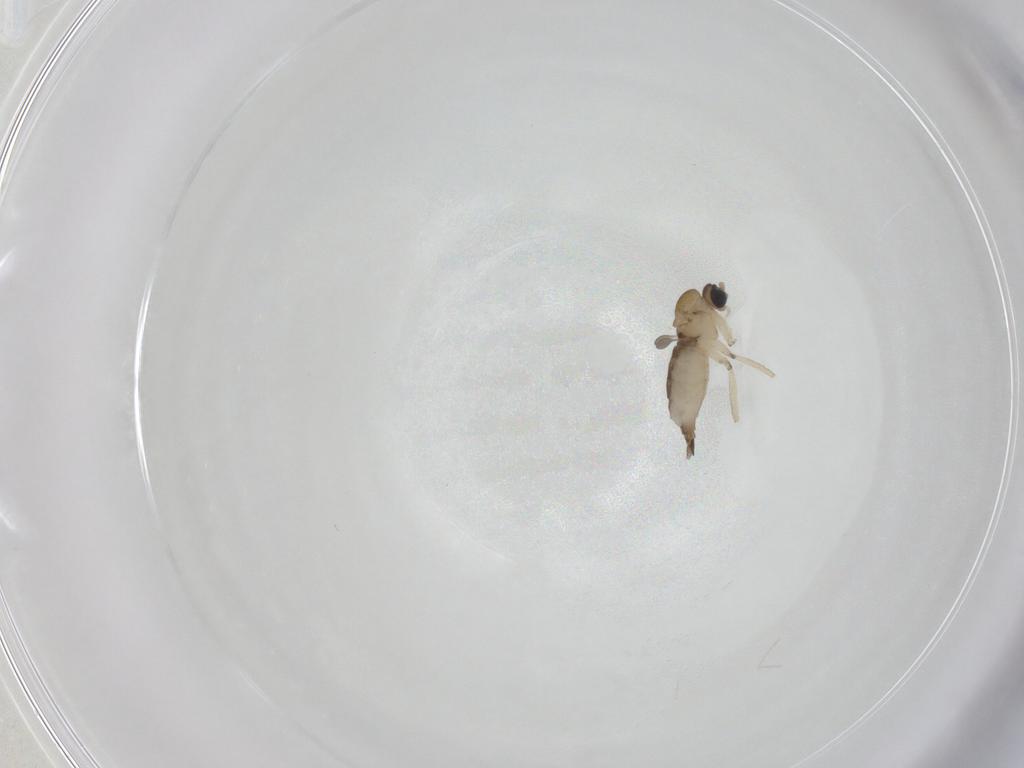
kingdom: Animalia
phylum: Arthropoda
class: Insecta
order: Diptera
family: Sciaridae
